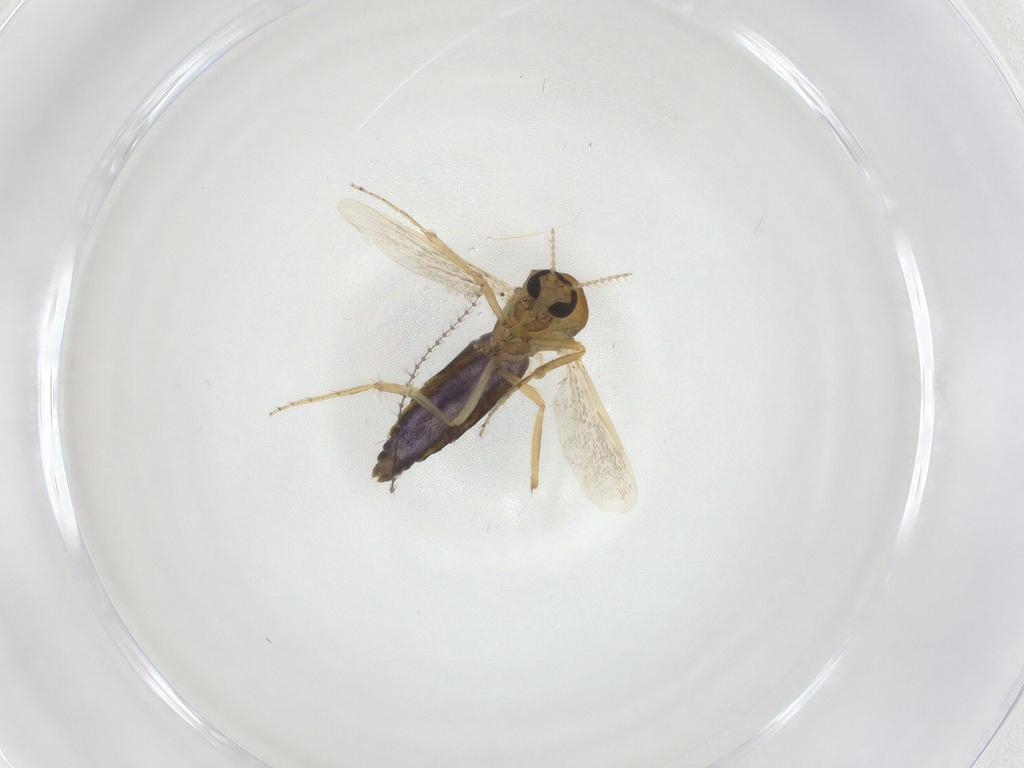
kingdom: Animalia
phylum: Arthropoda
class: Insecta
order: Diptera
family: Ceratopogonidae
